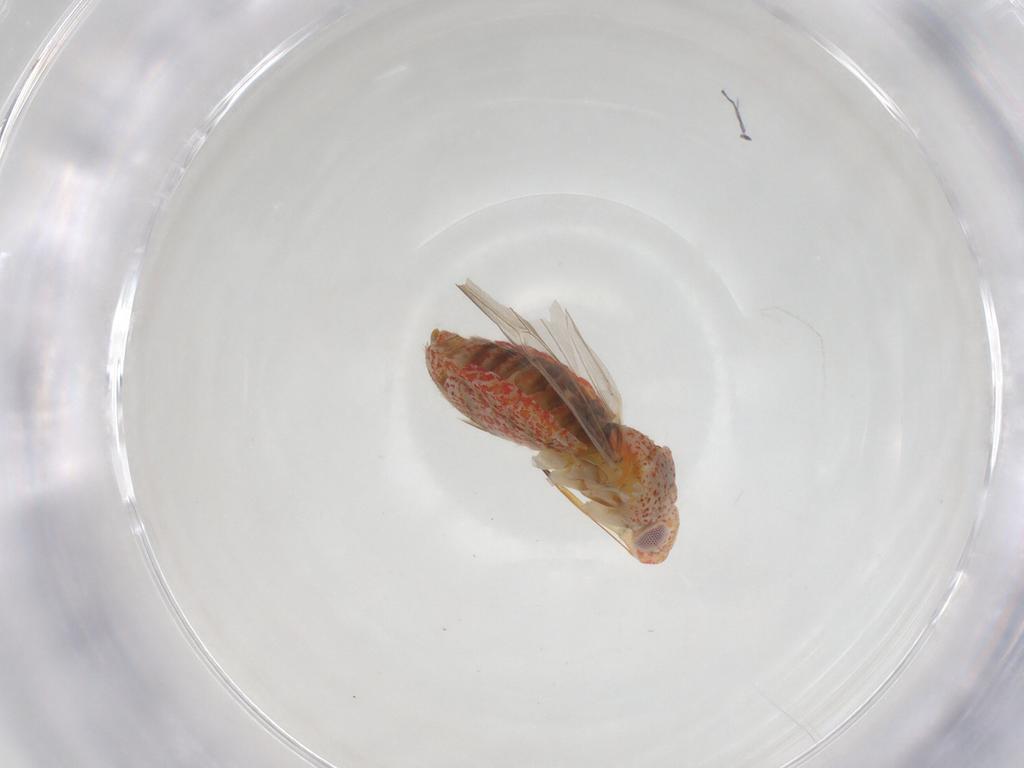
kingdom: Animalia
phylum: Arthropoda
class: Insecta
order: Hemiptera
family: Miridae
